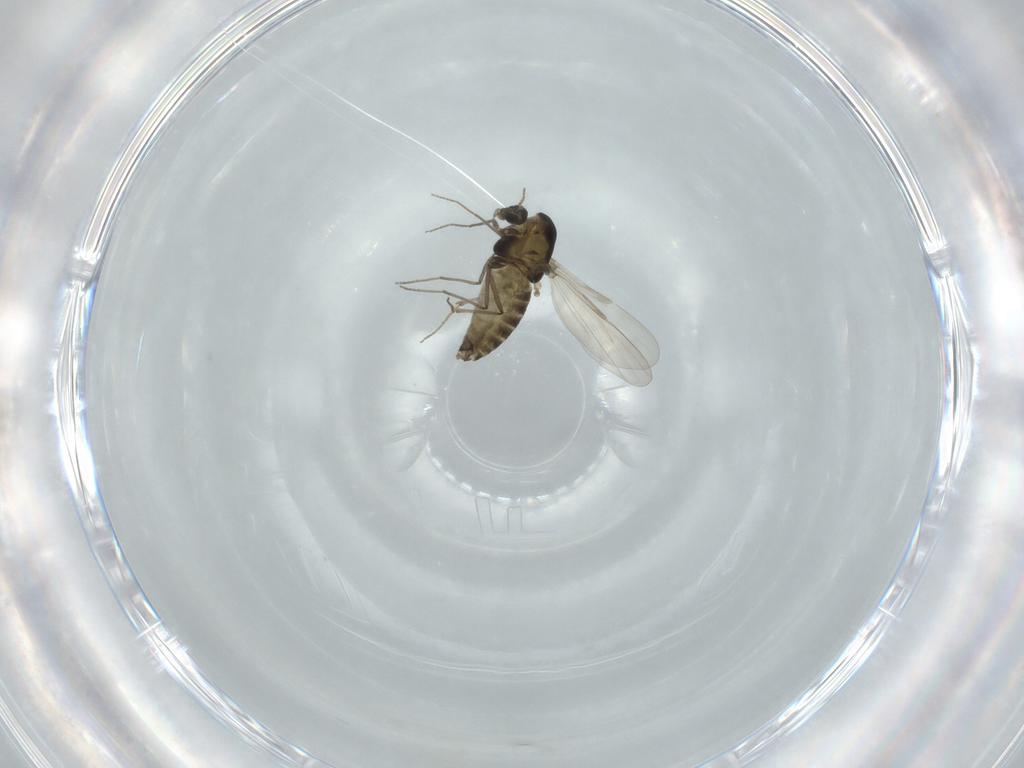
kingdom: Animalia
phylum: Arthropoda
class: Insecta
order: Diptera
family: Chironomidae
